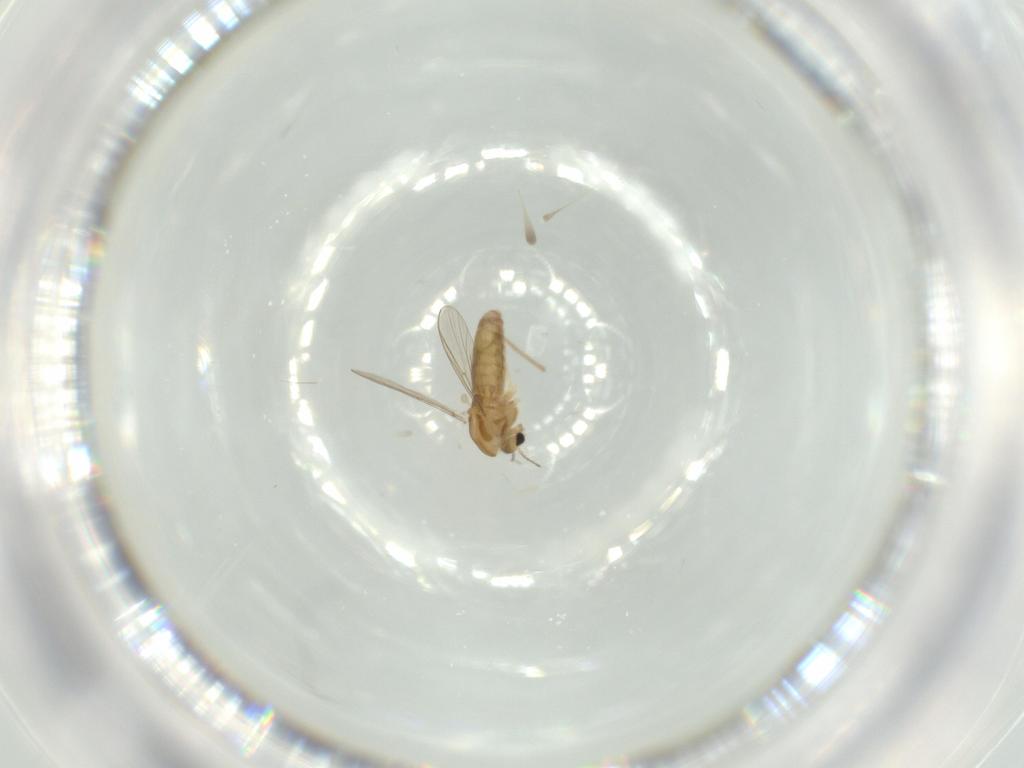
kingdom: Animalia
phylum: Arthropoda
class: Insecta
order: Diptera
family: Chironomidae
